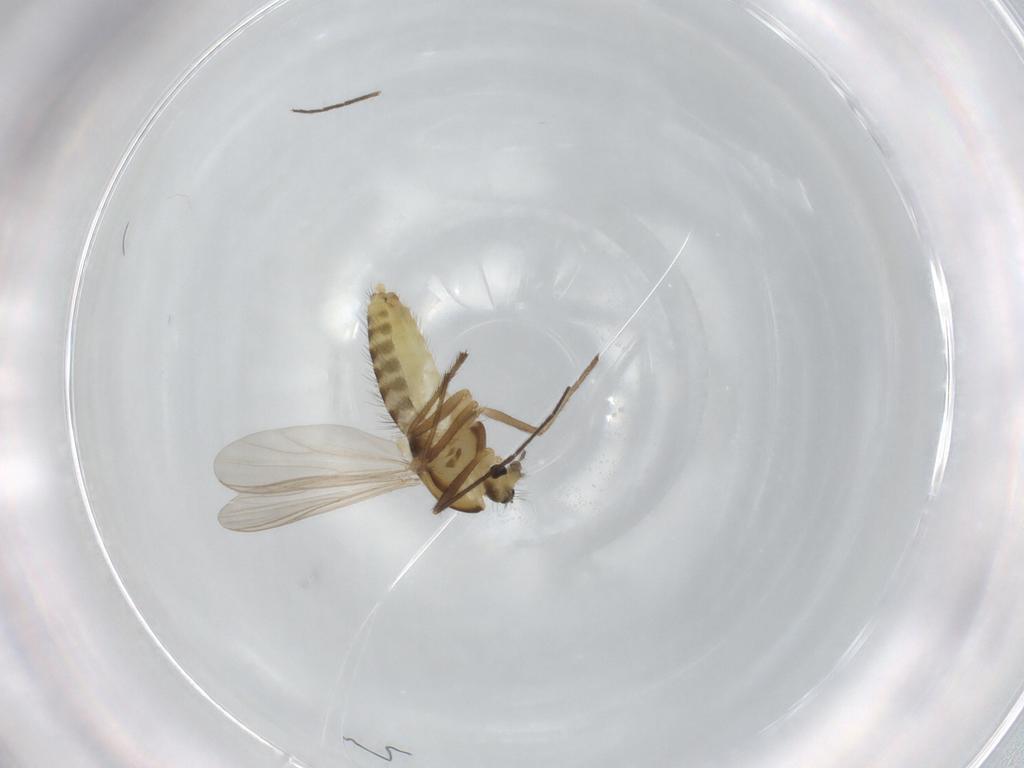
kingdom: Animalia
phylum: Arthropoda
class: Insecta
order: Diptera
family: Chironomidae
